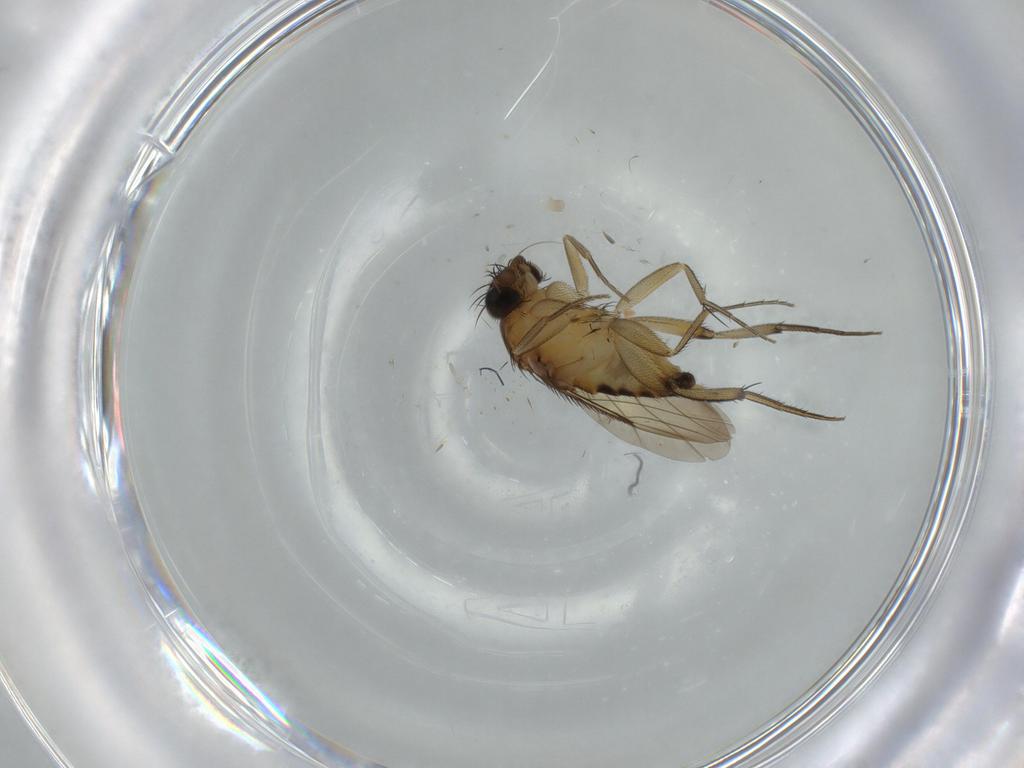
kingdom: Animalia
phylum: Arthropoda
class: Insecta
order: Diptera
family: Phoridae
